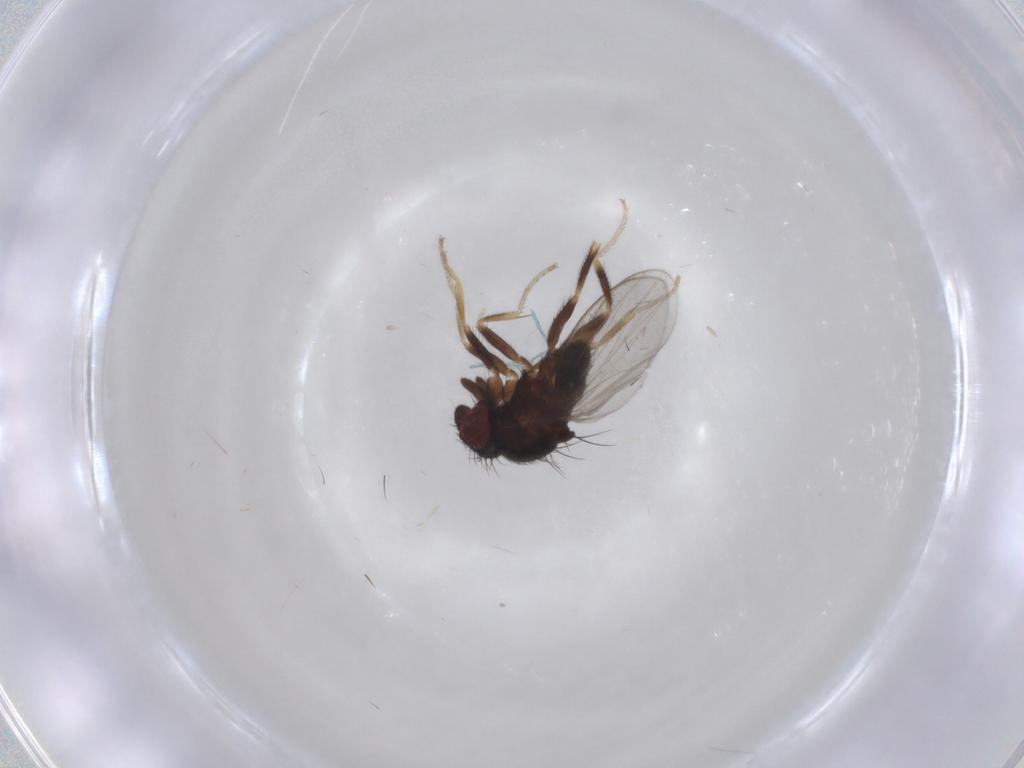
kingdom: Animalia
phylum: Arthropoda
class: Insecta
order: Diptera
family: Milichiidae
